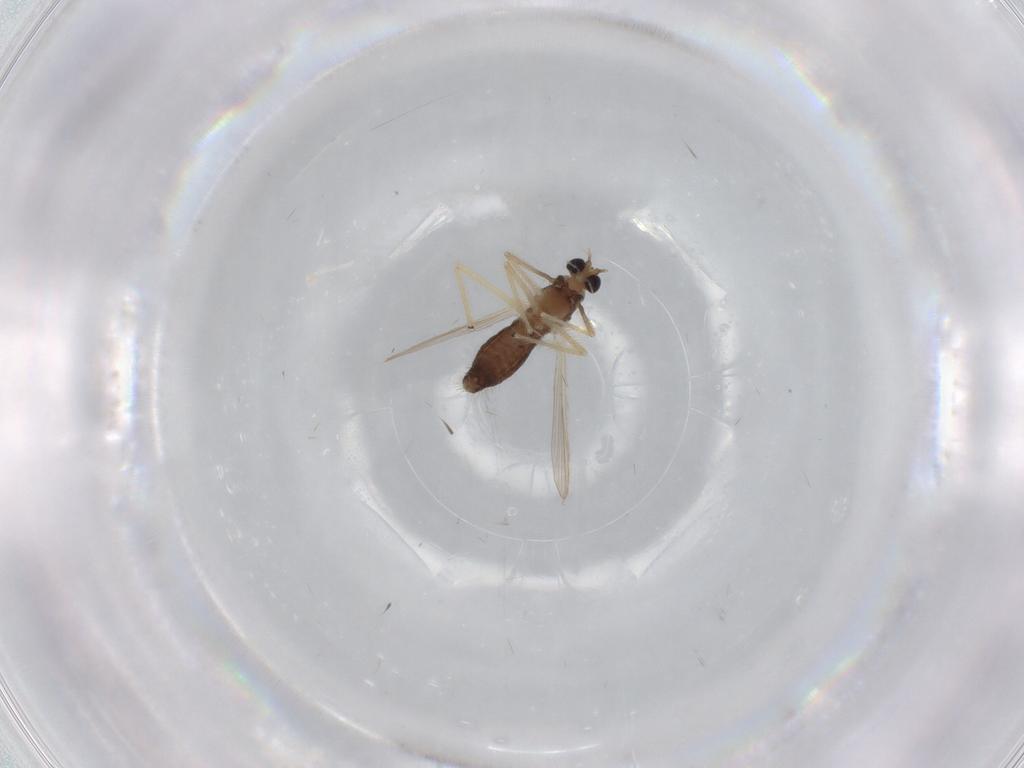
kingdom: Animalia
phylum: Arthropoda
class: Insecta
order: Diptera
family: Chironomidae
